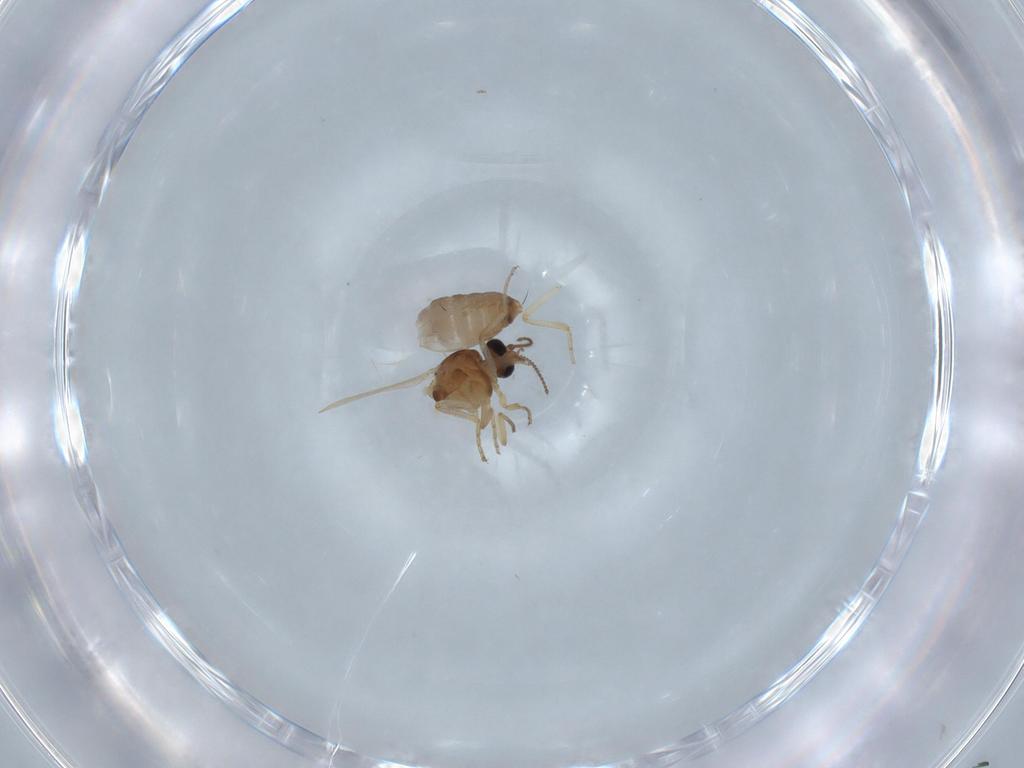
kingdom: Animalia
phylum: Arthropoda
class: Insecta
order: Diptera
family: Ceratopogonidae
